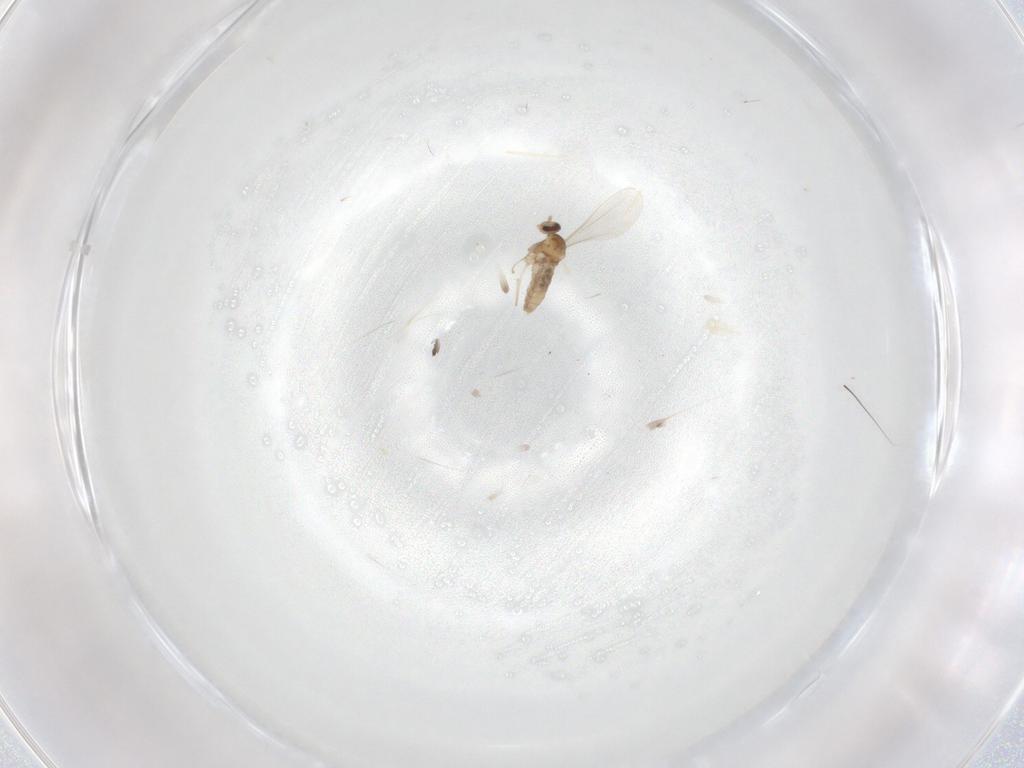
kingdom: Animalia
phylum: Arthropoda
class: Insecta
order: Diptera
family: Cecidomyiidae
